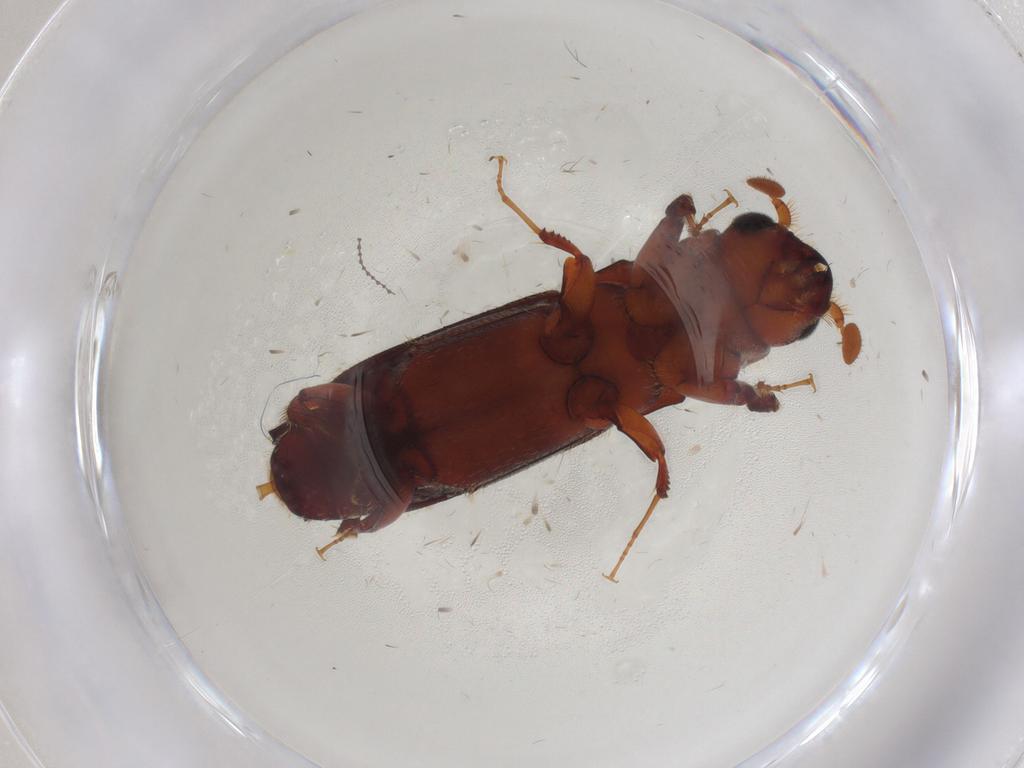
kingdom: Animalia
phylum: Arthropoda
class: Insecta
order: Coleoptera
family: Curculionidae
